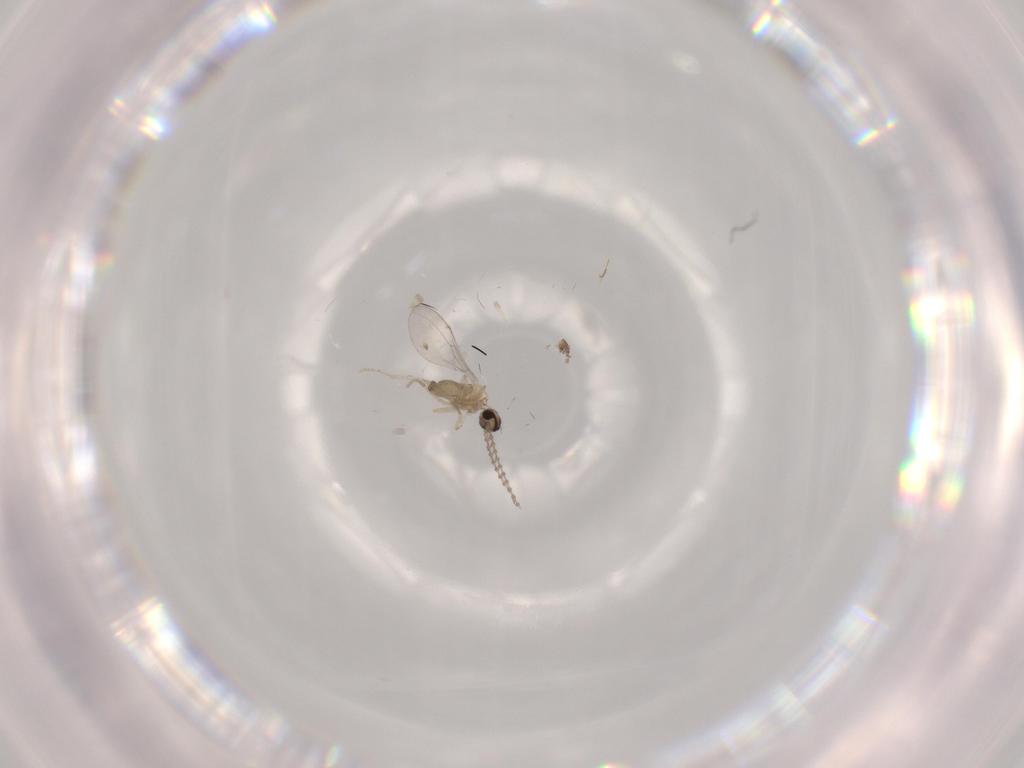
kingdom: Animalia
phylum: Arthropoda
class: Insecta
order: Diptera
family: Cecidomyiidae
